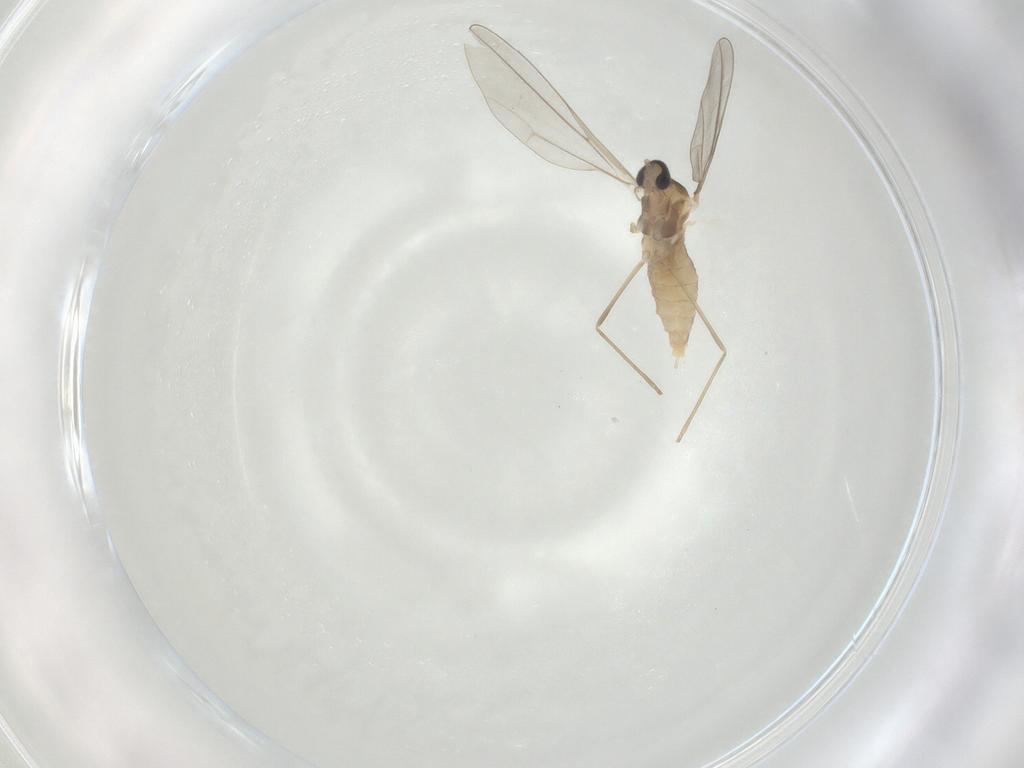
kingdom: Animalia
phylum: Arthropoda
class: Insecta
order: Diptera
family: Cecidomyiidae
